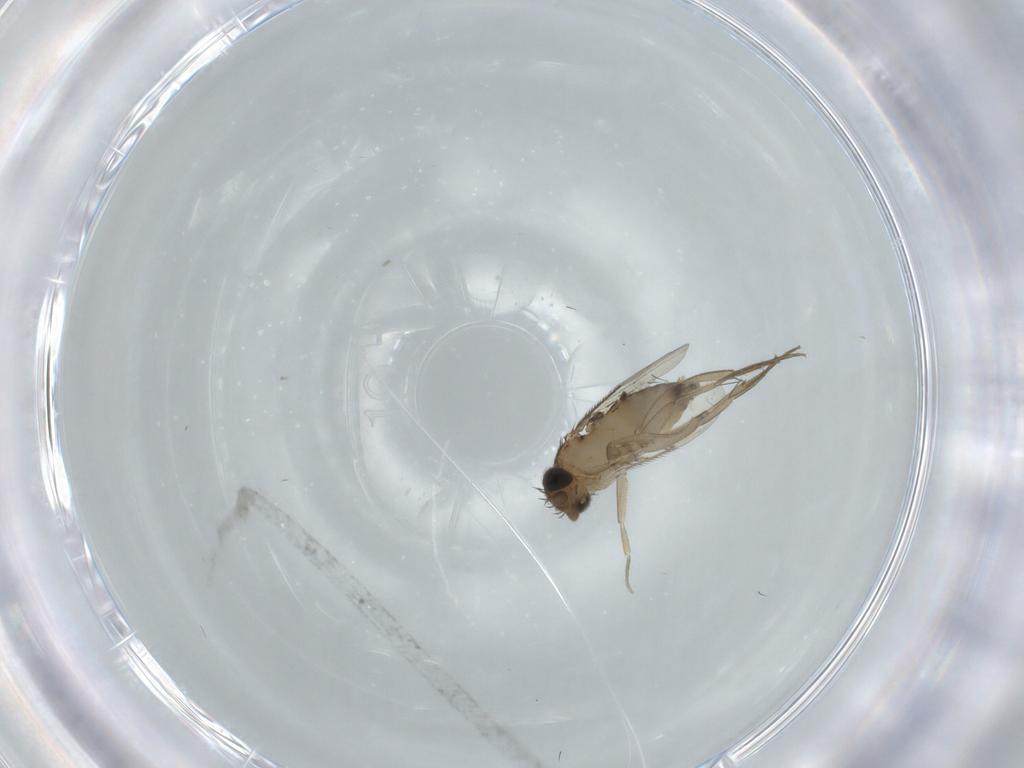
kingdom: Animalia
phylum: Arthropoda
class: Insecta
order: Diptera
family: Phoridae
